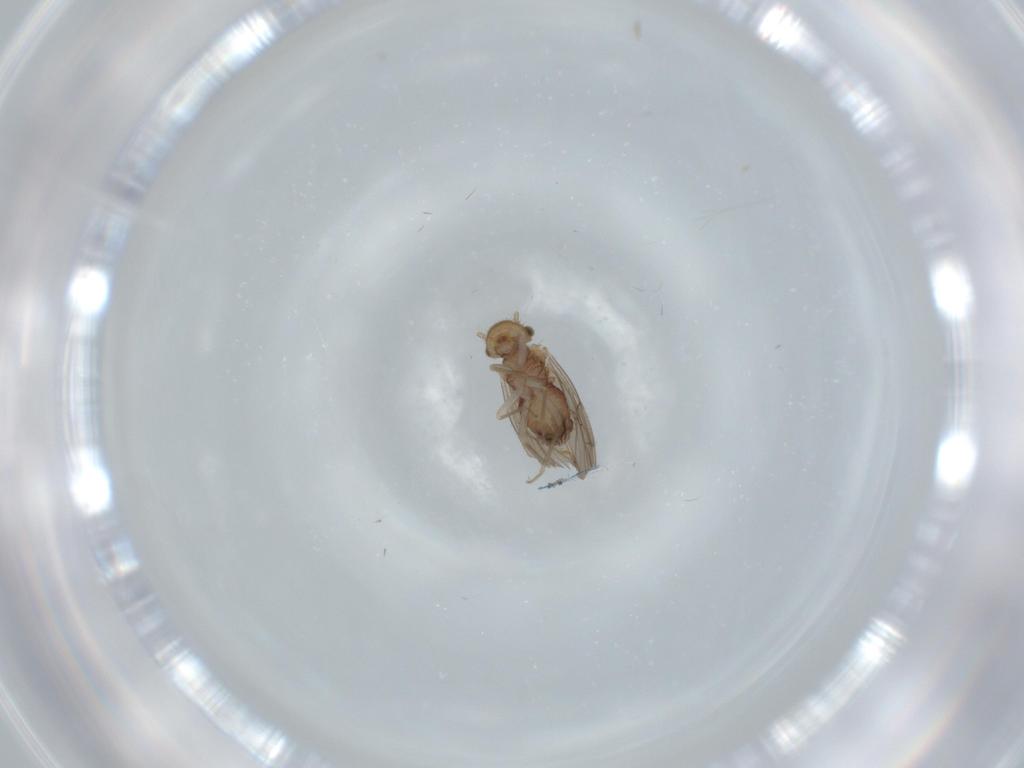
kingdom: Animalia
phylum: Arthropoda
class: Insecta
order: Psocodea
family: Ectopsocidae
